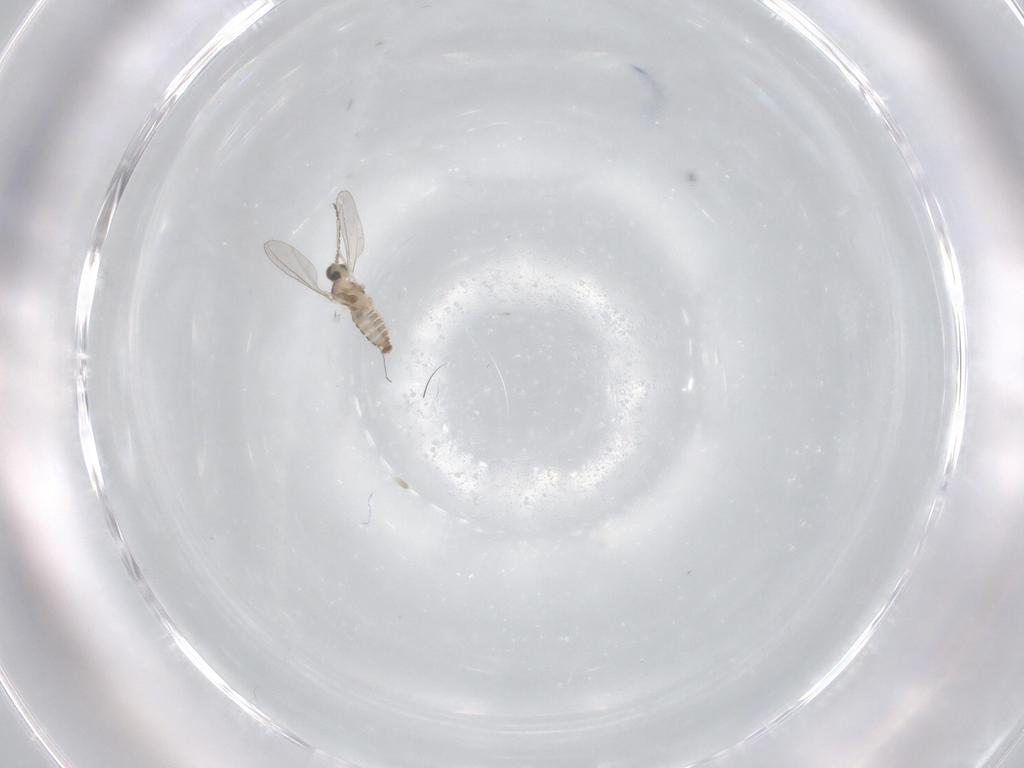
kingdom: Animalia
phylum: Arthropoda
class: Insecta
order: Diptera
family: Cecidomyiidae
